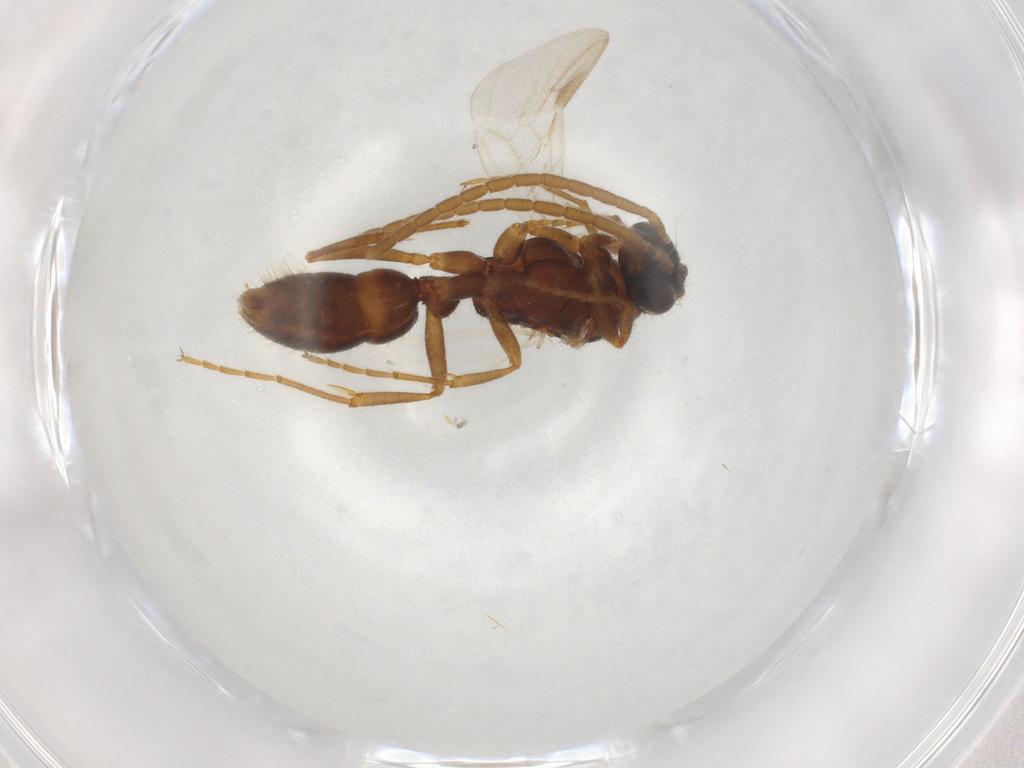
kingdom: Animalia
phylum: Arthropoda
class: Insecta
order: Hymenoptera
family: Formicidae
